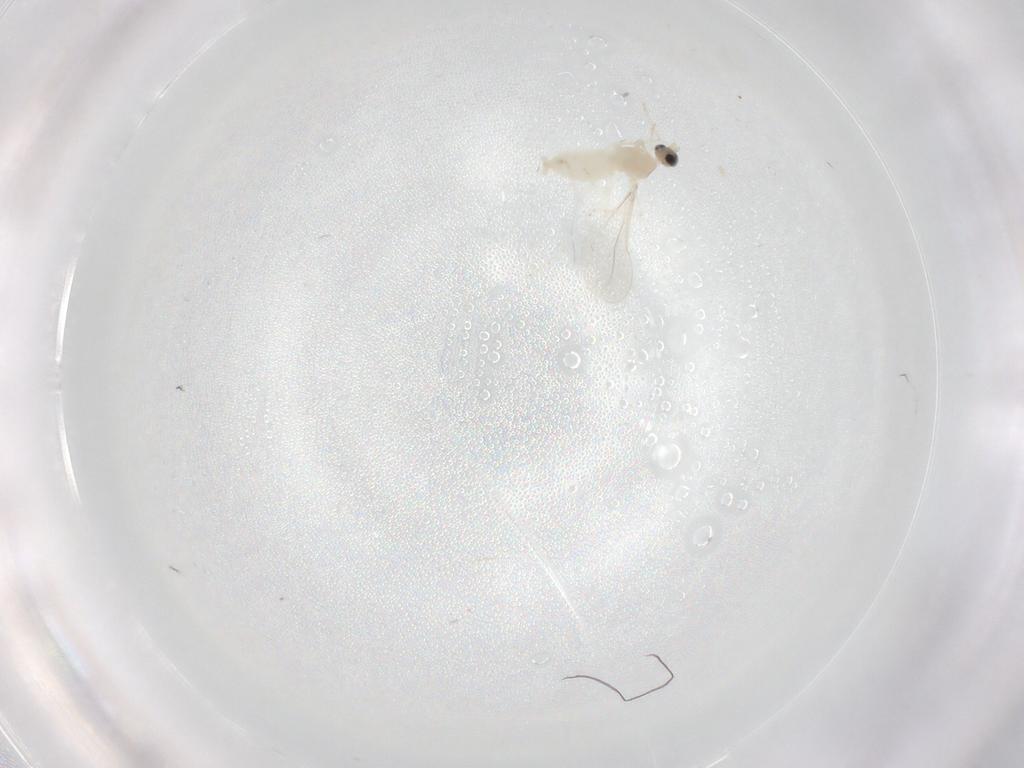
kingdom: Animalia
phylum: Arthropoda
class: Insecta
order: Diptera
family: Cecidomyiidae
